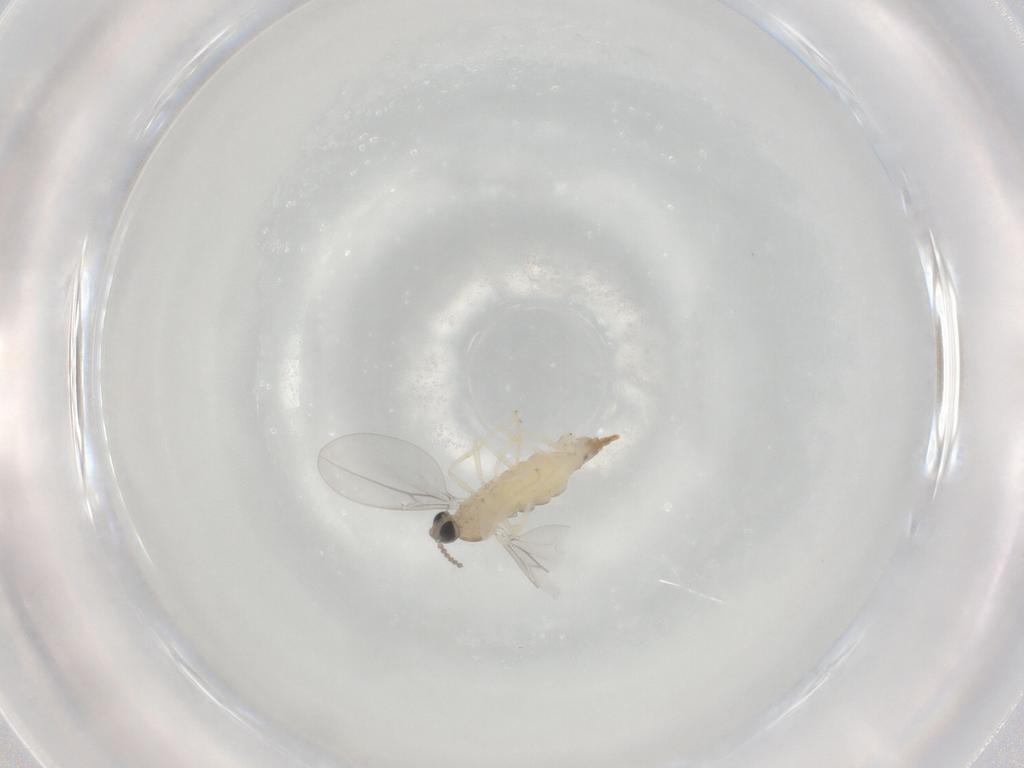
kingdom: Animalia
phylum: Arthropoda
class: Insecta
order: Diptera
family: Cecidomyiidae
